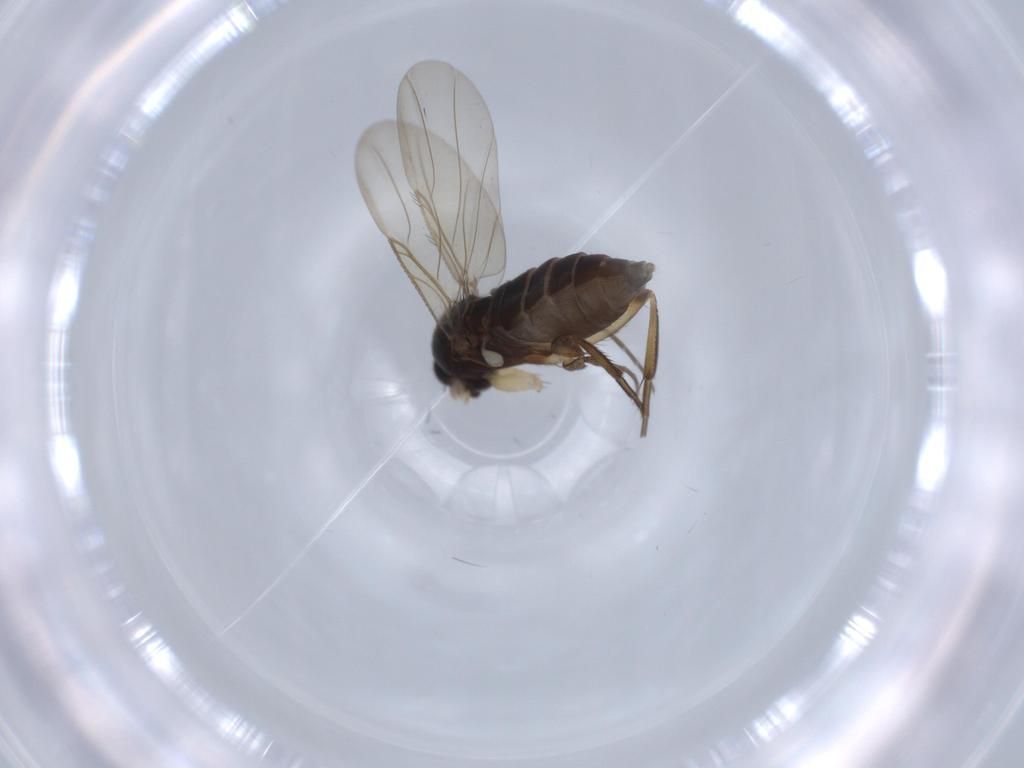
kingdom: Animalia
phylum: Arthropoda
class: Insecta
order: Diptera
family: Phoridae
